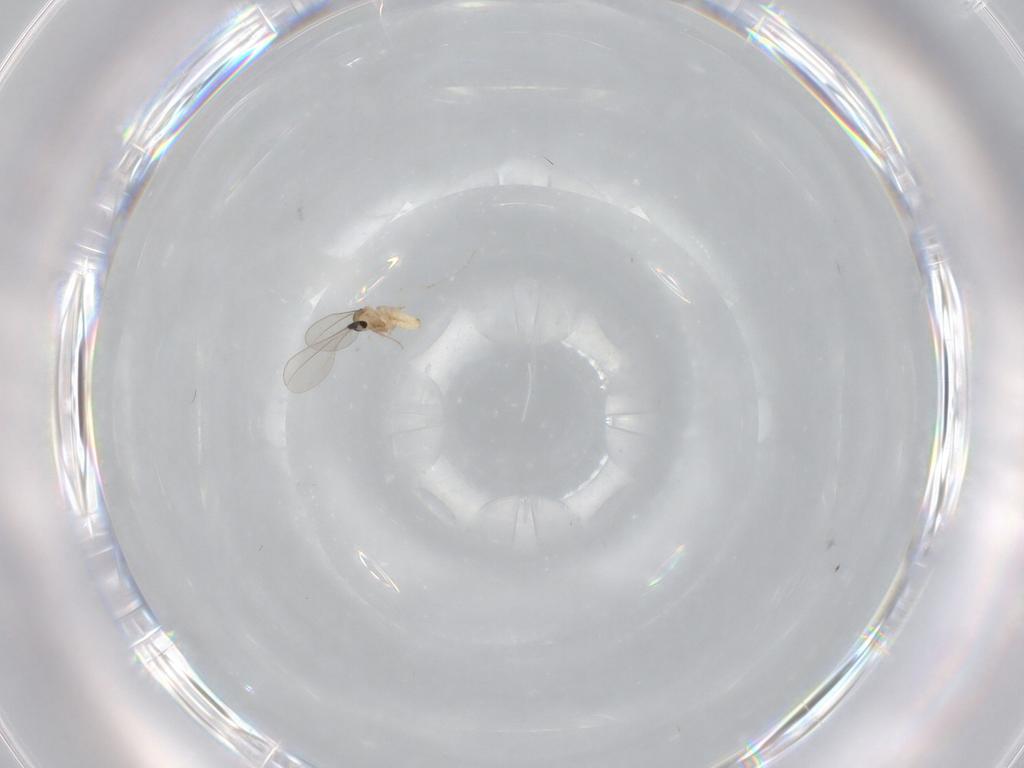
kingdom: Animalia
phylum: Arthropoda
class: Insecta
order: Diptera
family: Cecidomyiidae
